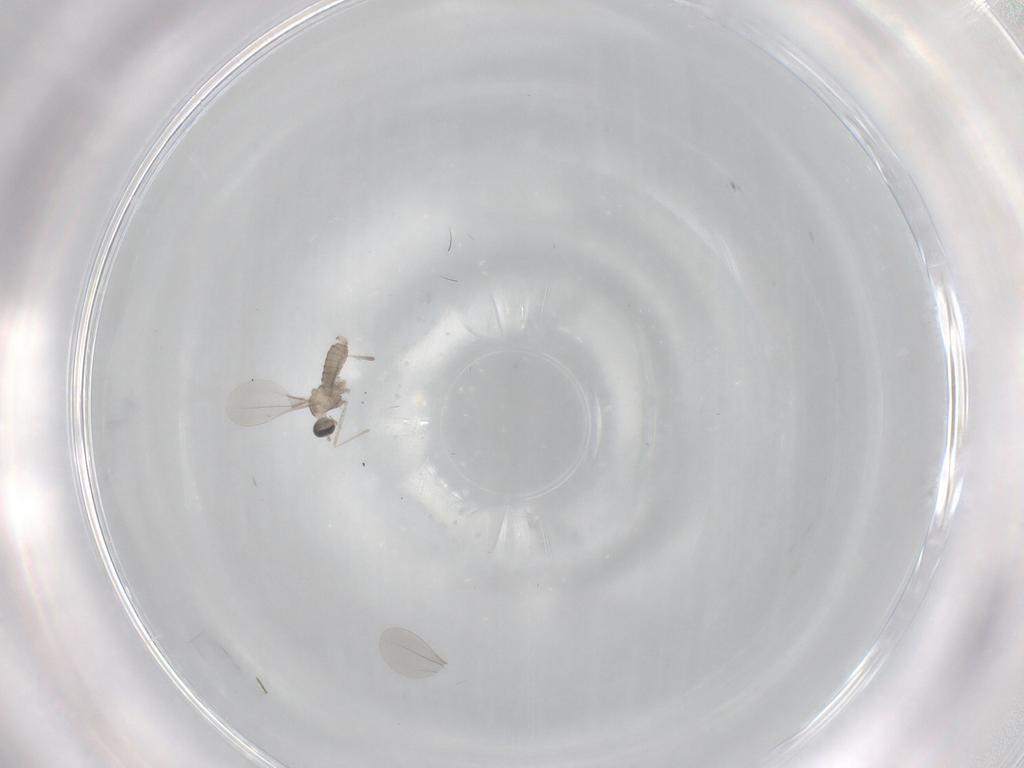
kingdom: Animalia
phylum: Arthropoda
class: Insecta
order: Diptera
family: Cecidomyiidae
